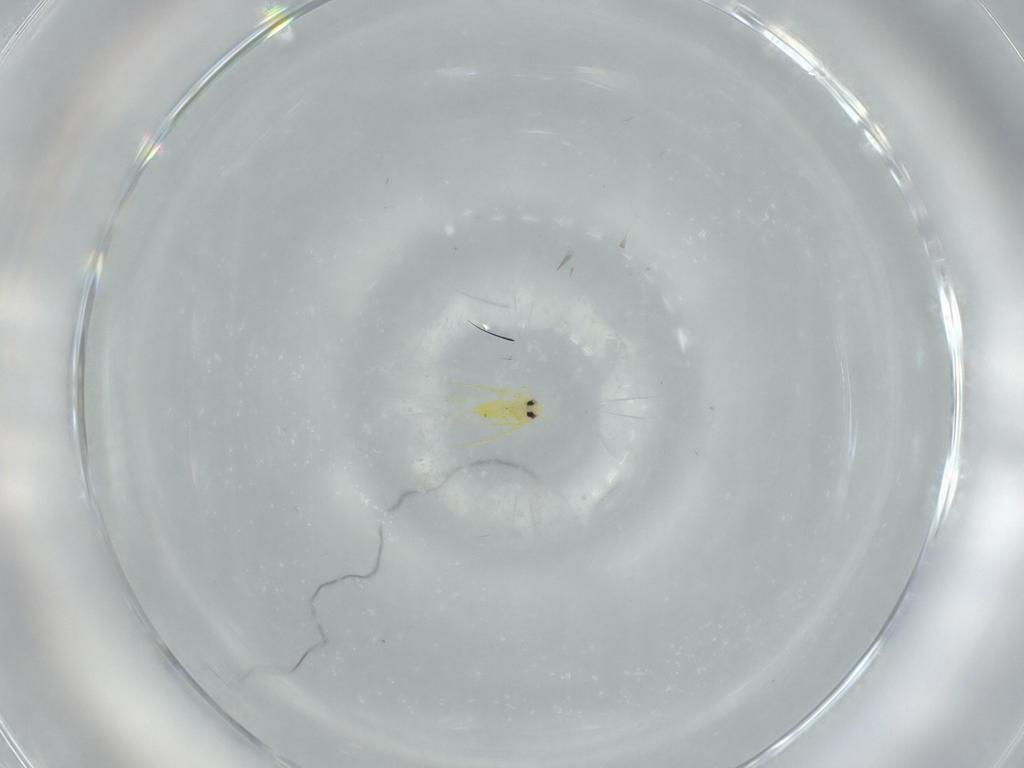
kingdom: Animalia
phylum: Arthropoda
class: Insecta
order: Hemiptera
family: Aleyrodidae
